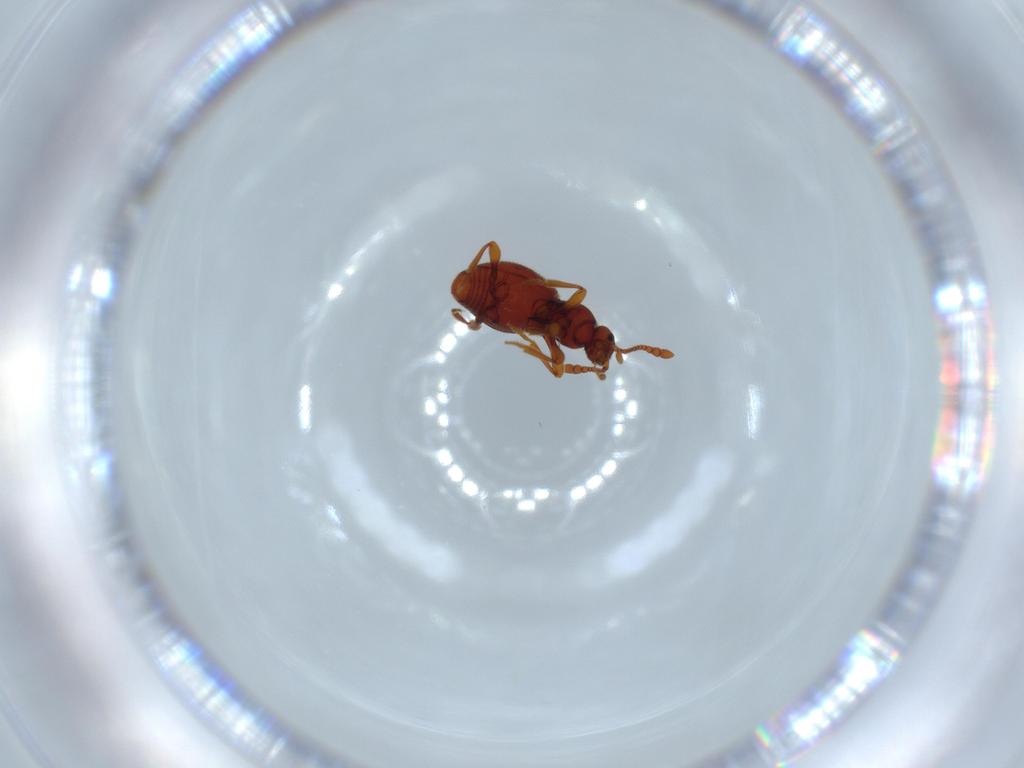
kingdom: Animalia
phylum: Arthropoda
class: Insecta
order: Coleoptera
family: Staphylinidae
